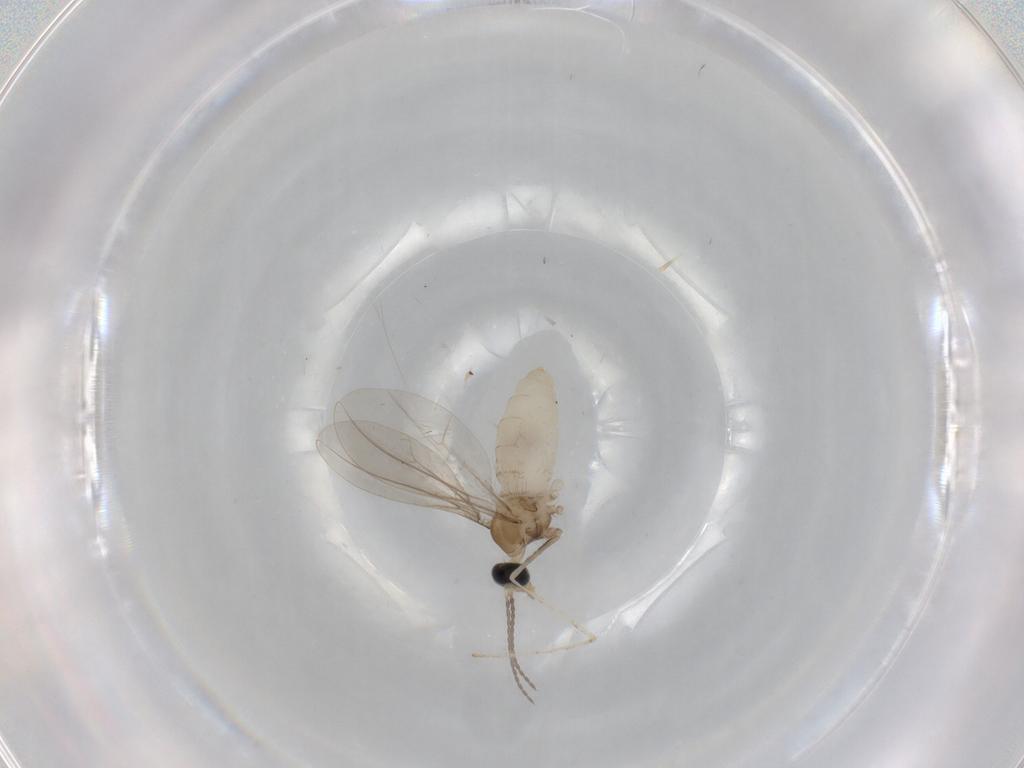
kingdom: Animalia
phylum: Arthropoda
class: Insecta
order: Diptera
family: Cecidomyiidae
